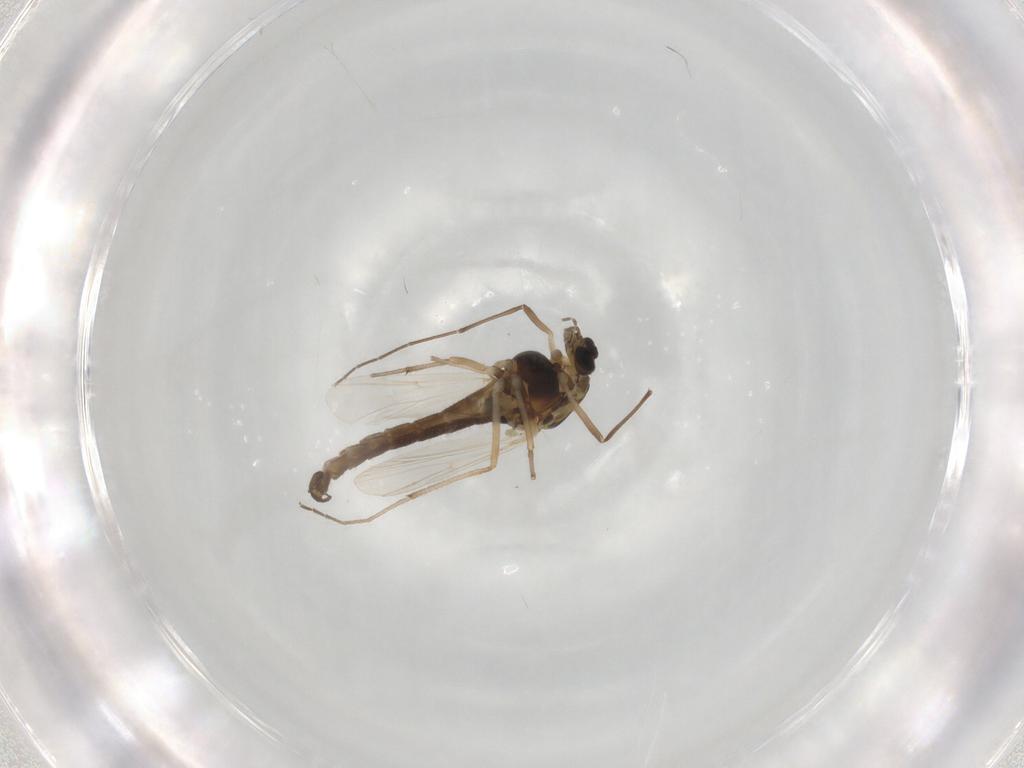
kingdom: Animalia
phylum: Arthropoda
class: Insecta
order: Diptera
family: Chironomidae
